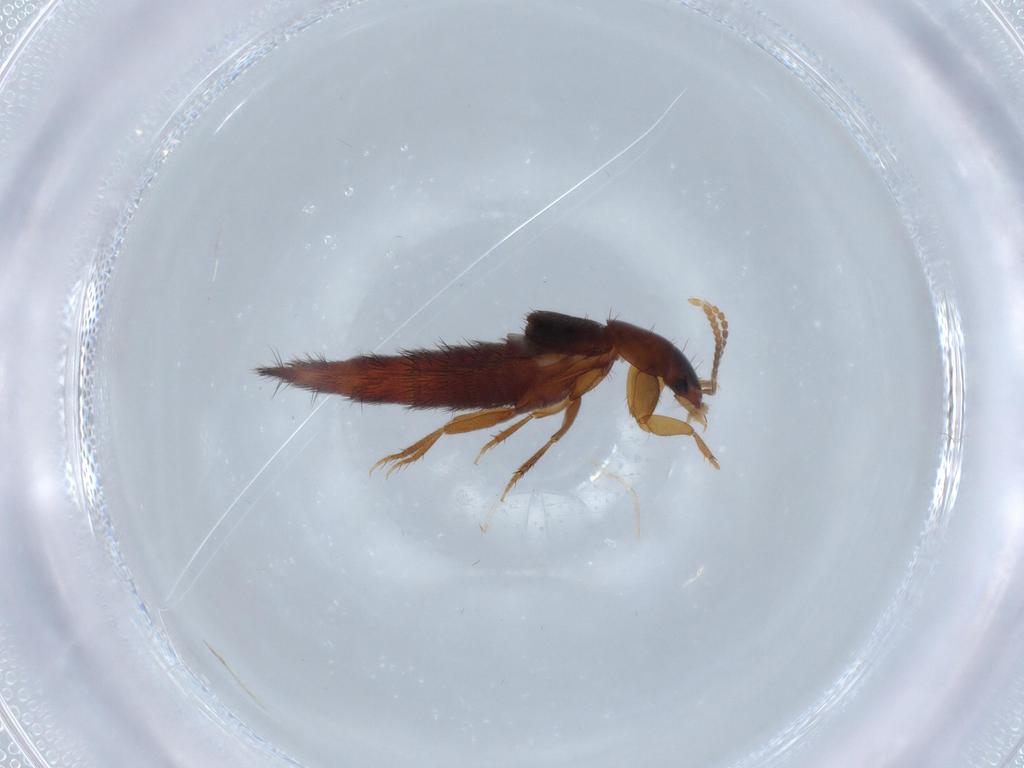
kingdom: Animalia
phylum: Arthropoda
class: Insecta
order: Coleoptera
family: Staphylinidae
